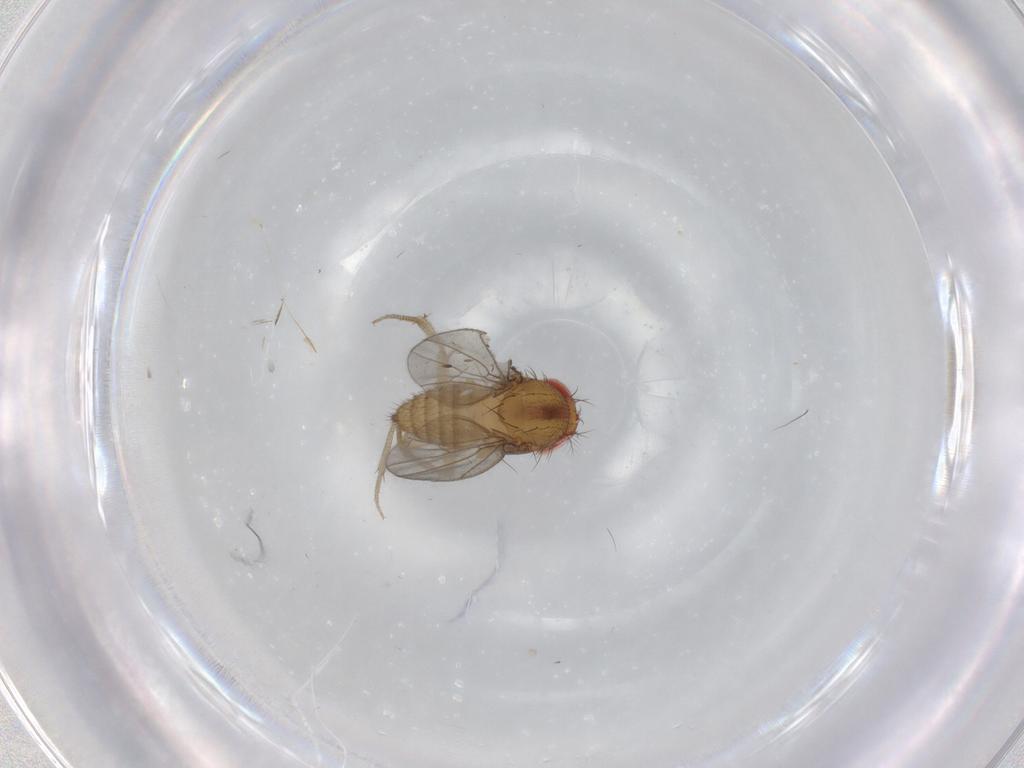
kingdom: Animalia
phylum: Arthropoda
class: Insecta
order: Diptera
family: Drosophilidae
